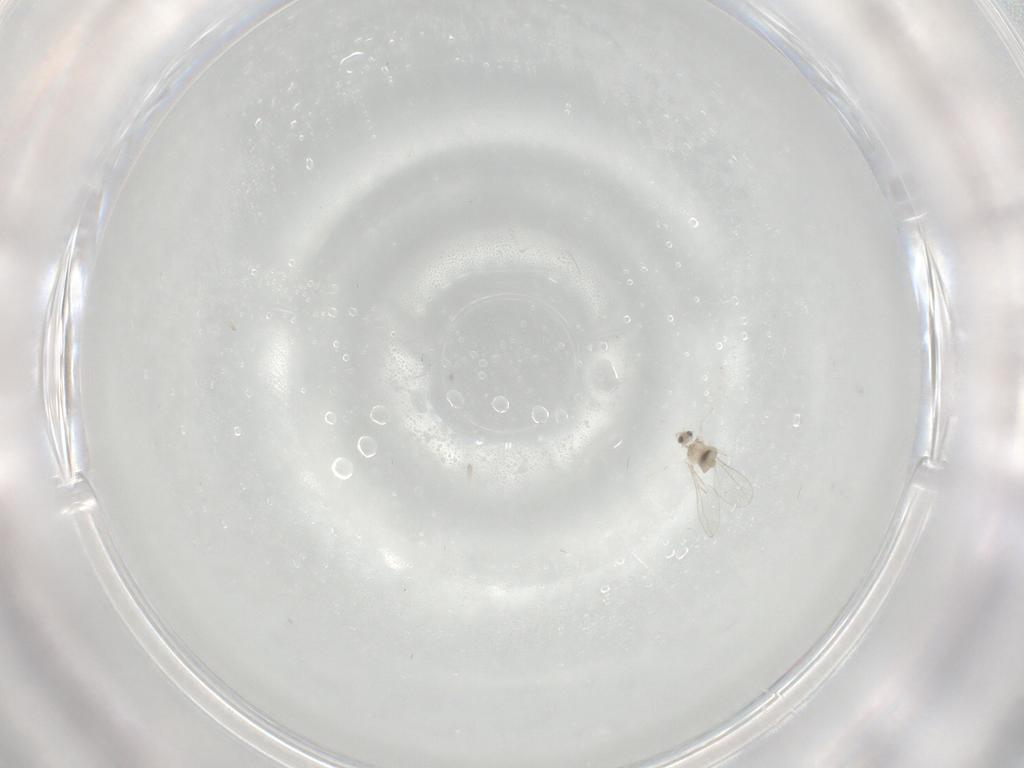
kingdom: Animalia
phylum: Arthropoda
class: Insecta
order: Diptera
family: Cecidomyiidae
